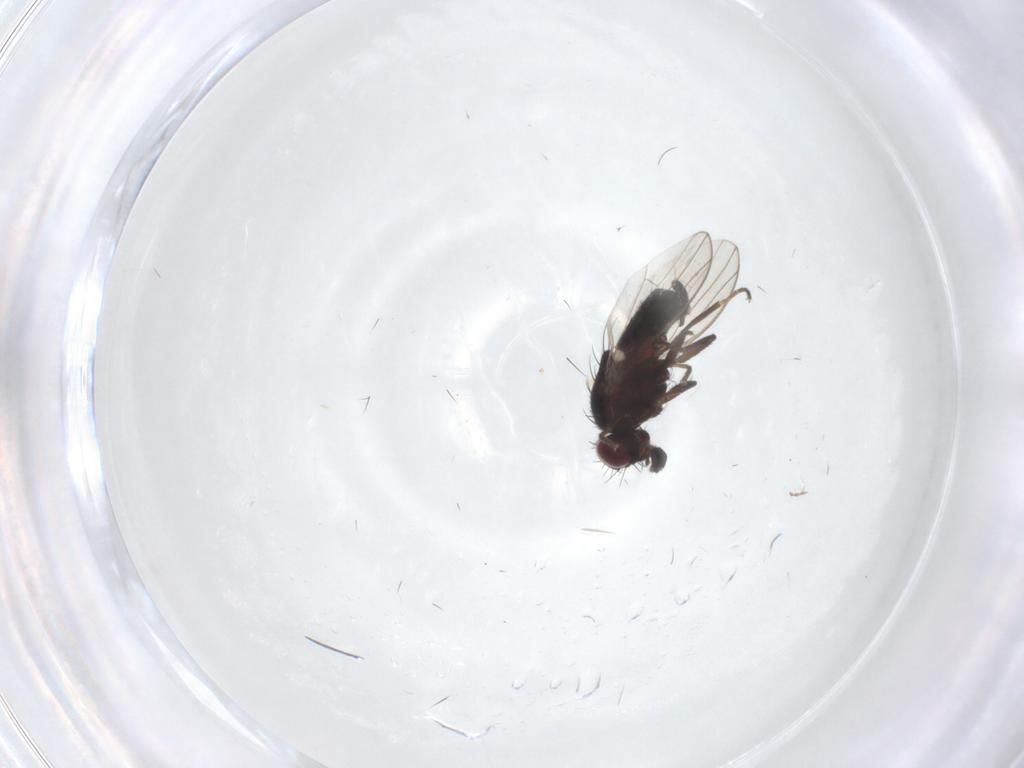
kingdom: Animalia
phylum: Arthropoda
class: Insecta
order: Diptera
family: Carnidae
